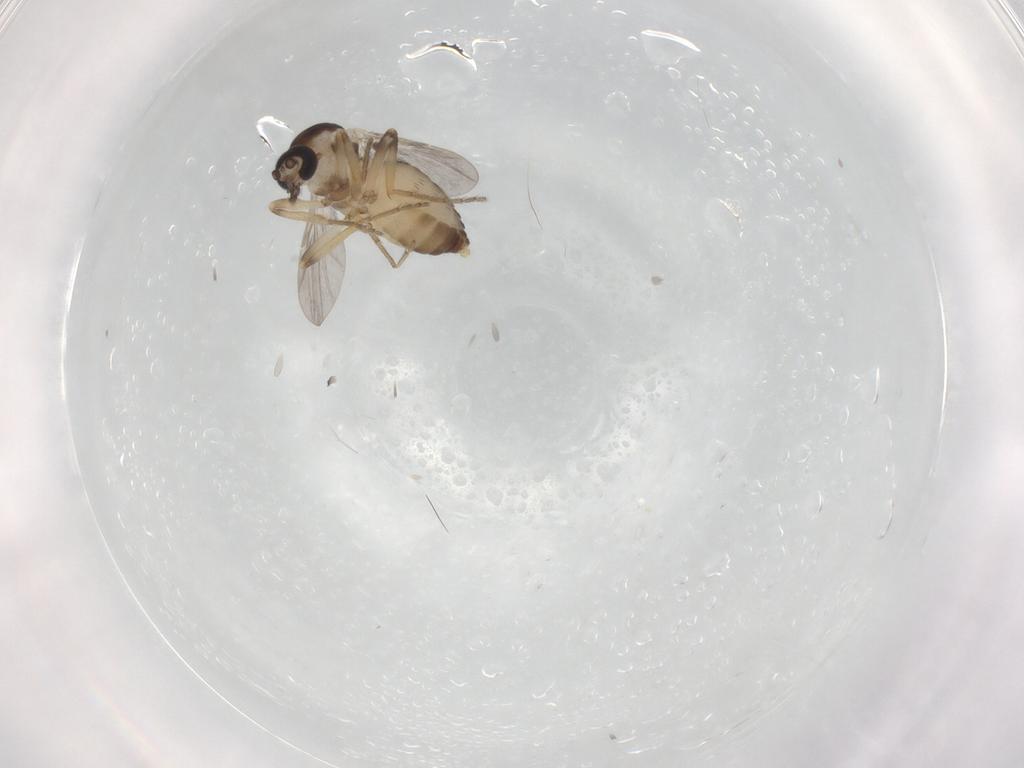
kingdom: Animalia
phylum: Arthropoda
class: Insecta
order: Diptera
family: Ceratopogonidae
